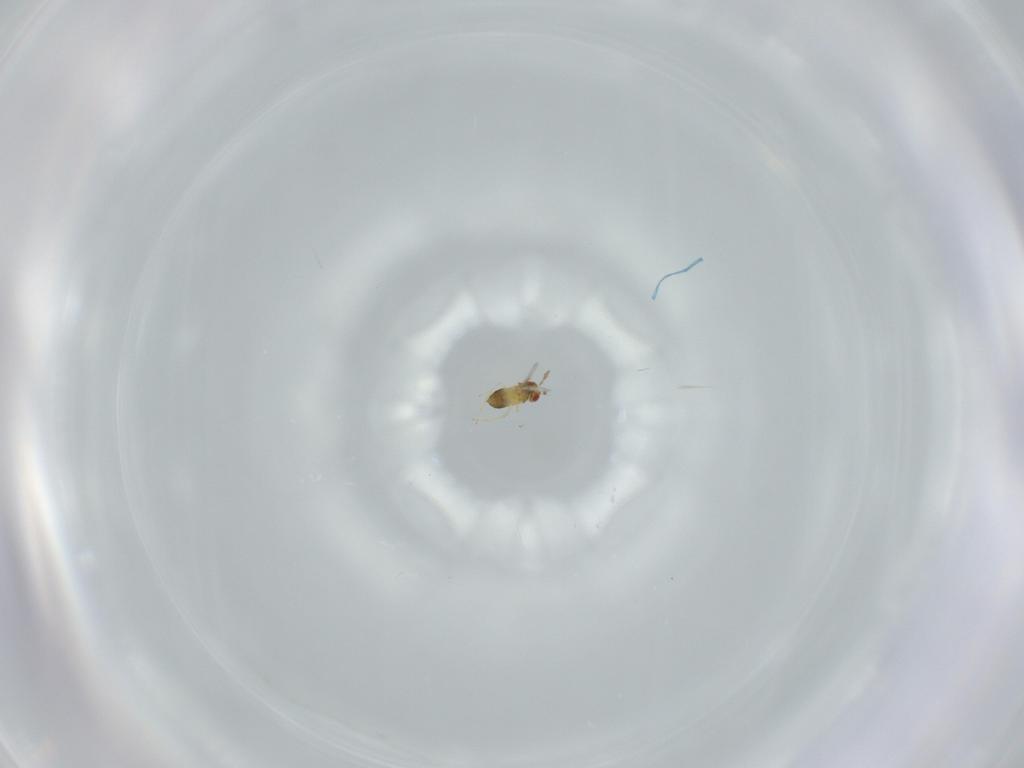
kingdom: Animalia
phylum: Arthropoda
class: Insecta
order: Hymenoptera
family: Trichogrammatidae
